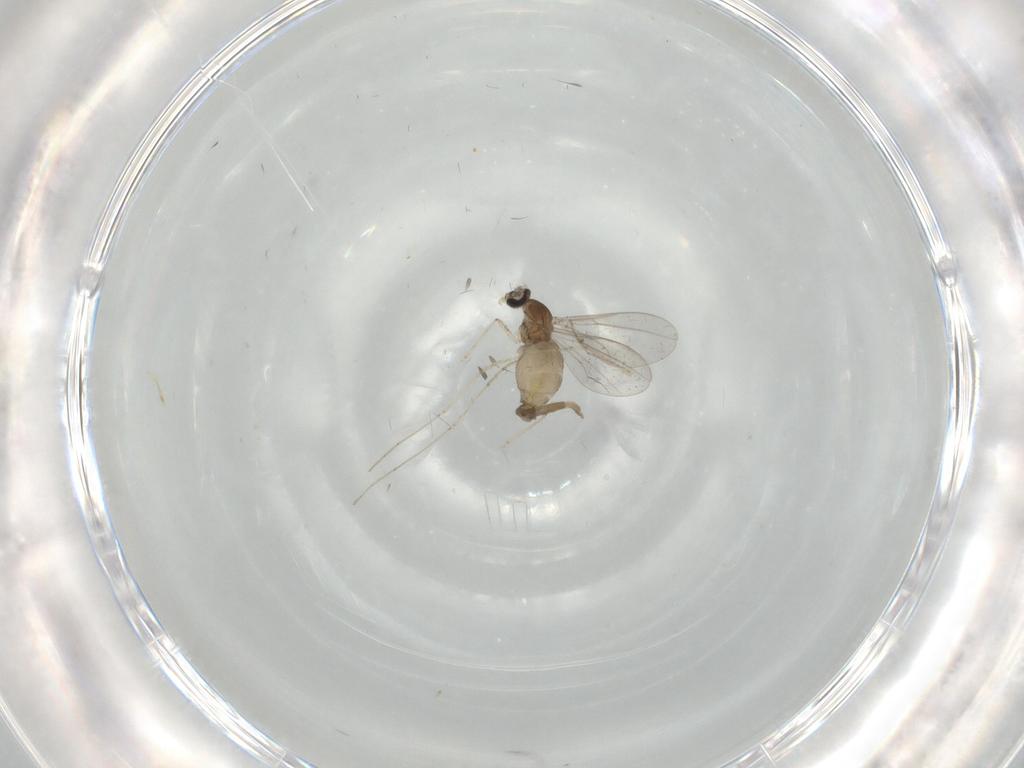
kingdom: Animalia
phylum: Arthropoda
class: Insecta
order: Diptera
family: Cecidomyiidae
